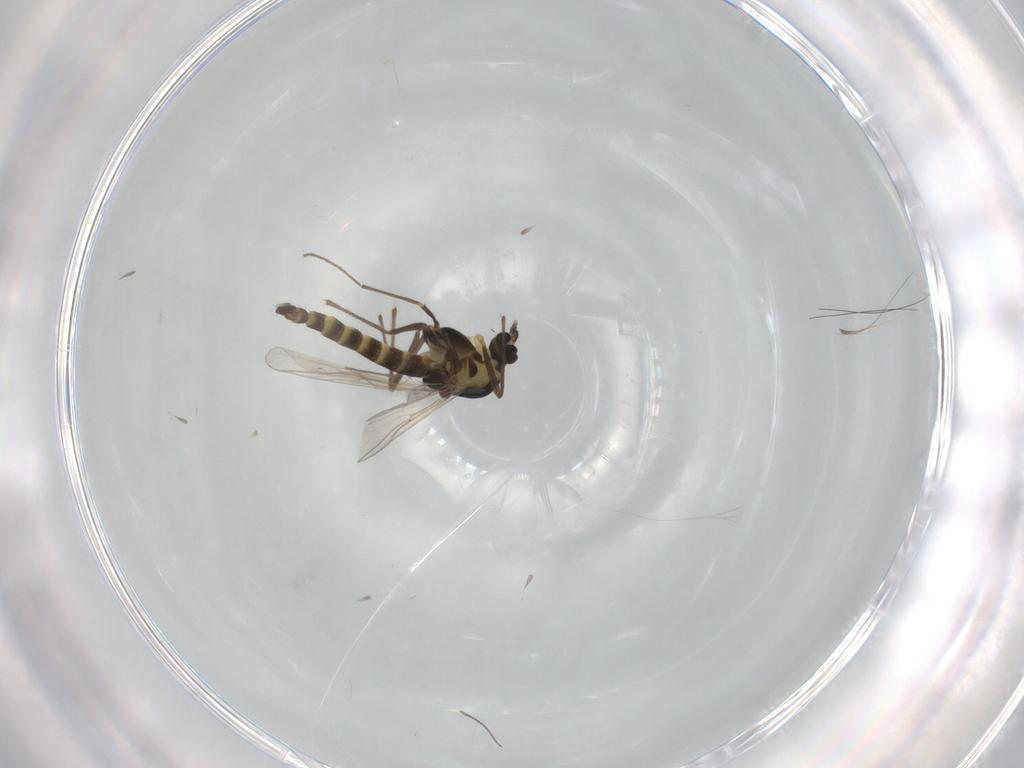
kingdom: Animalia
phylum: Arthropoda
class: Insecta
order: Diptera
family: Chironomidae
